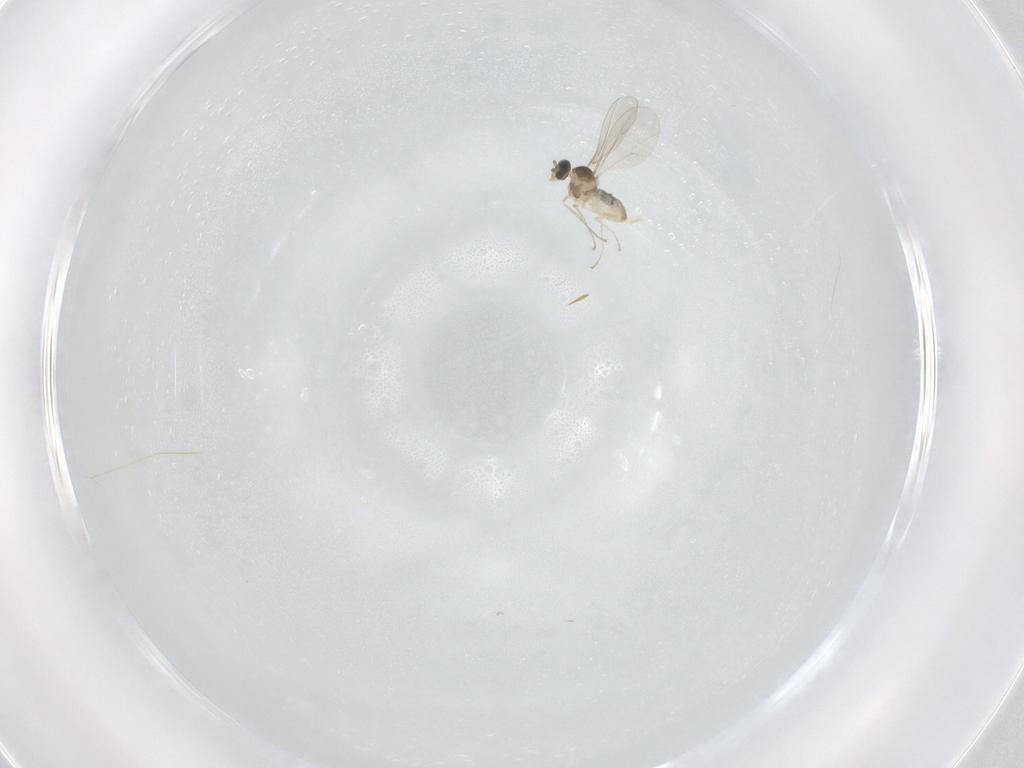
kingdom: Animalia
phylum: Arthropoda
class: Insecta
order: Diptera
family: Cecidomyiidae
